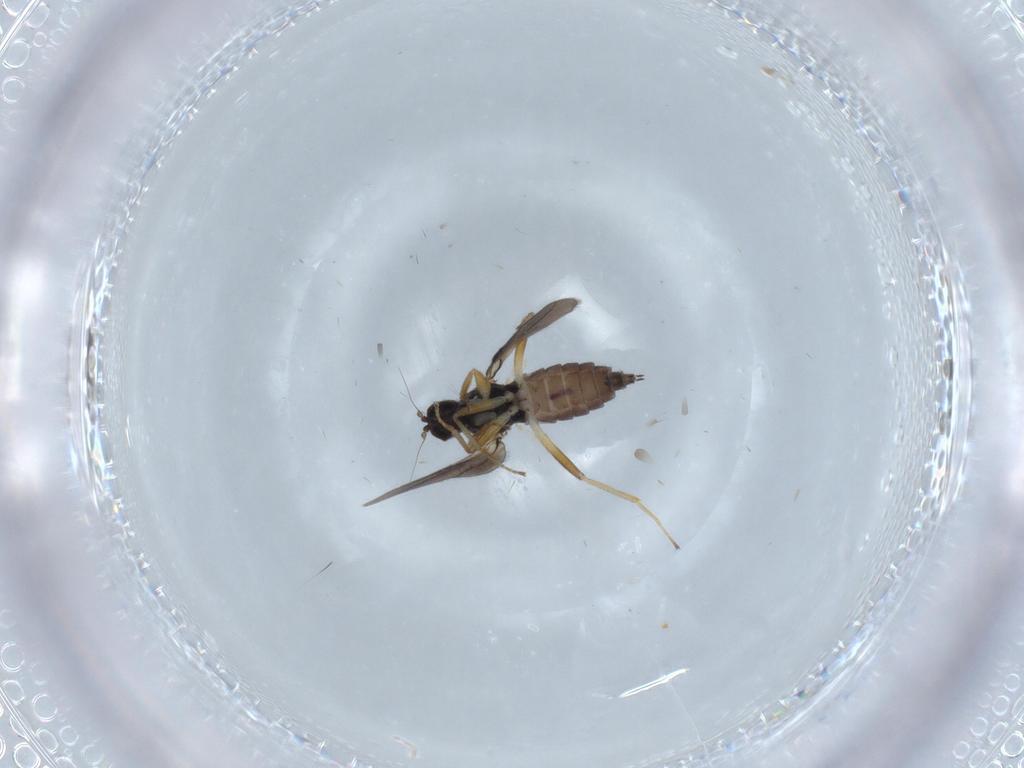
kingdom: Animalia
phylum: Arthropoda
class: Insecta
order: Diptera
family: Hybotidae
